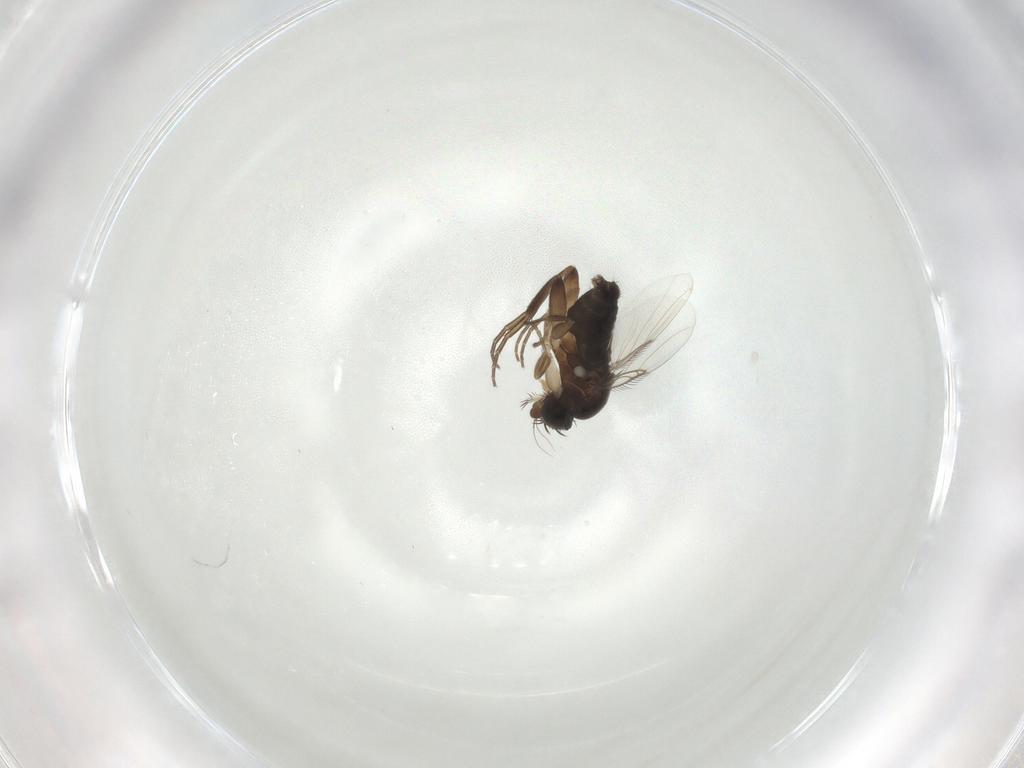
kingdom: Animalia
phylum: Arthropoda
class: Insecta
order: Diptera
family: Phoridae
